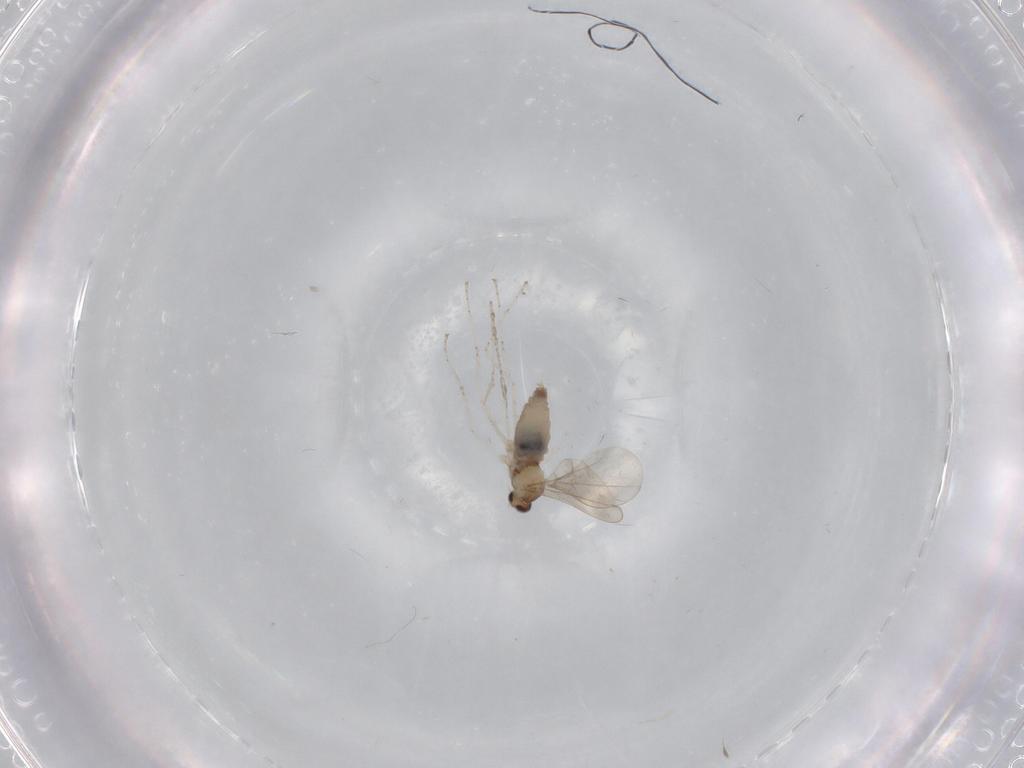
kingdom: Animalia
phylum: Arthropoda
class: Insecta
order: Diptera
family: Cecidomyiidae
